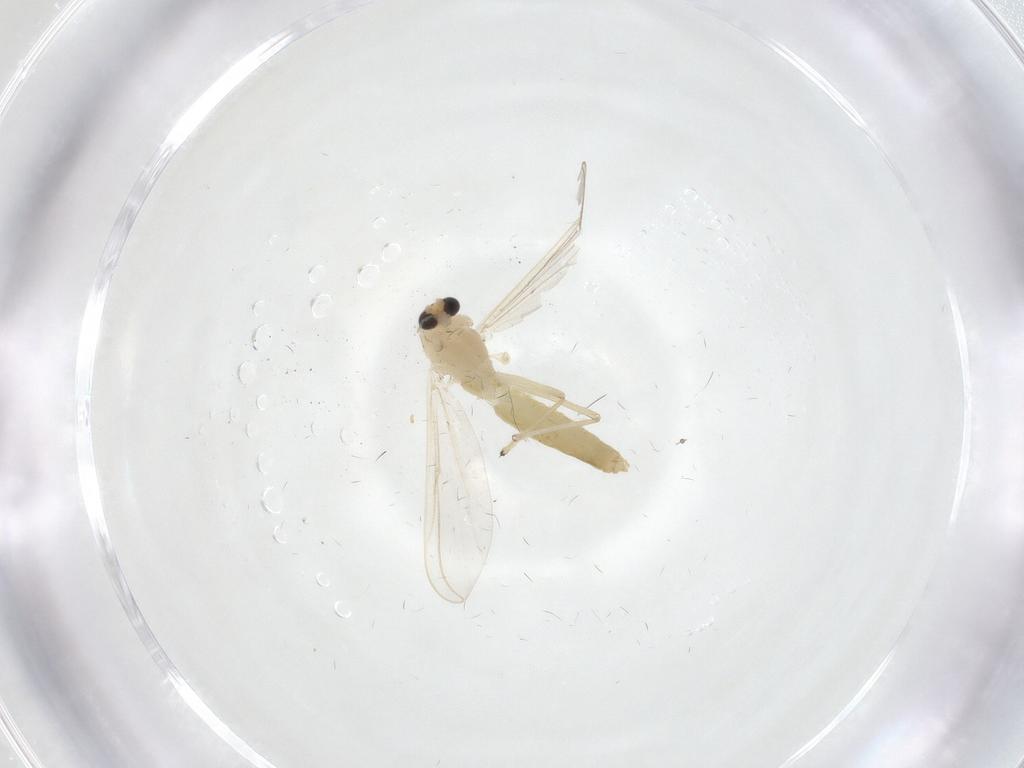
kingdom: Animalia
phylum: Arthropoda
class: Insecta
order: Diptera
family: Chironomidae
